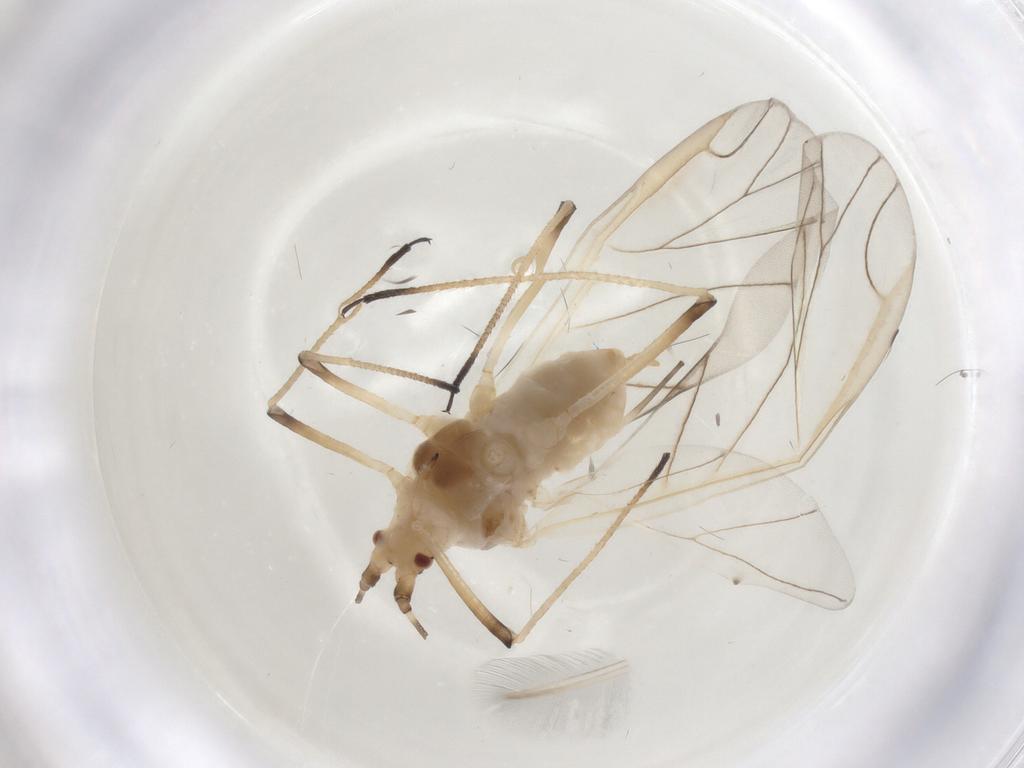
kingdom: Animalia
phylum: Arthropoda
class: Insecta
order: Hemiptera
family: Aphididae
